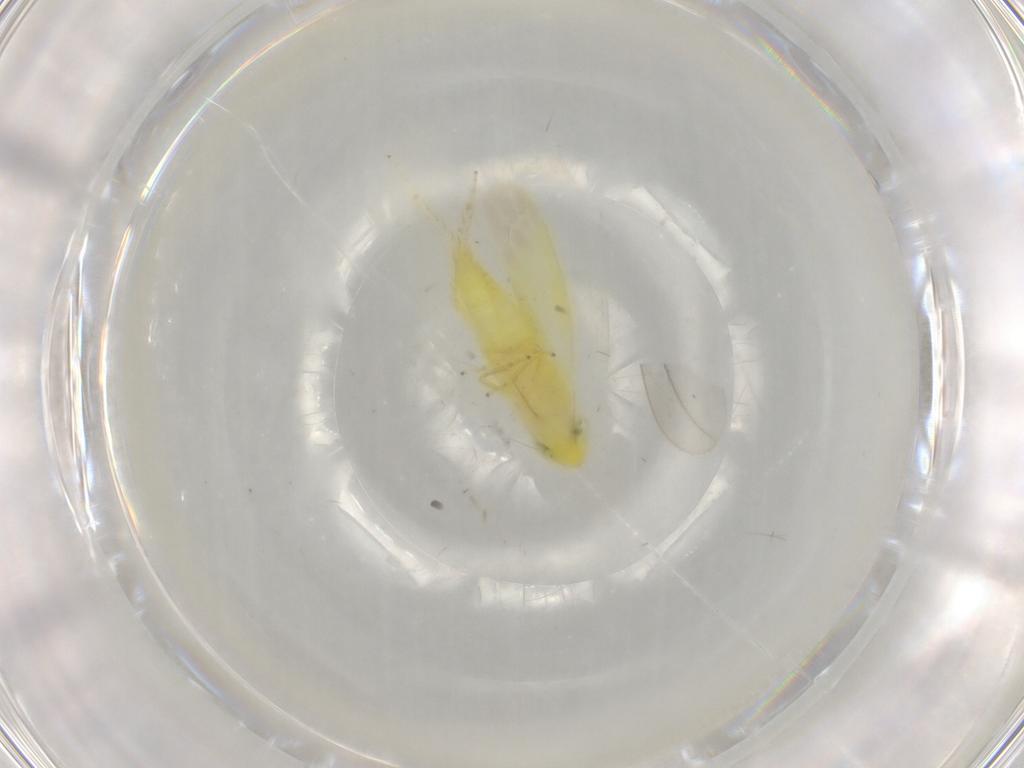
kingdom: Animalia
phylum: Arthropoda
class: Insecta
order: Hemiptera
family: Cicadellidae
